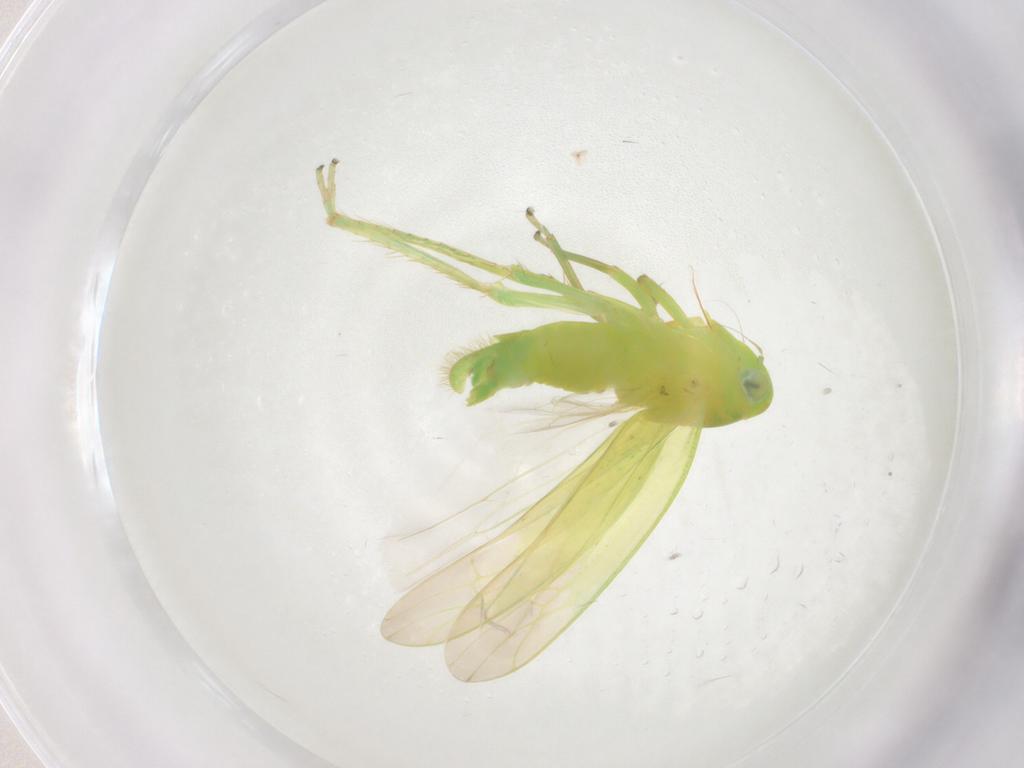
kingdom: Animalia
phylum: Arthropoda
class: Insecta
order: Hemiptera
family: Cicadellidae
